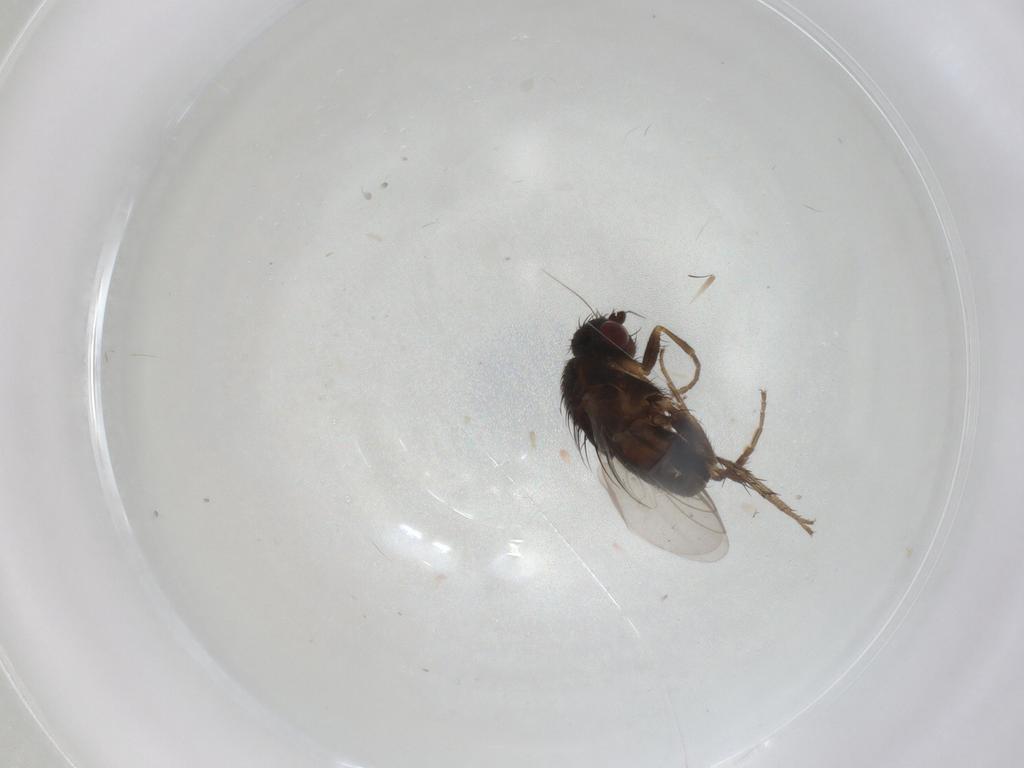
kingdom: Animalia
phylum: Arthropoda
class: Insecta
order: Diptera
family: Sphaeroceridae
